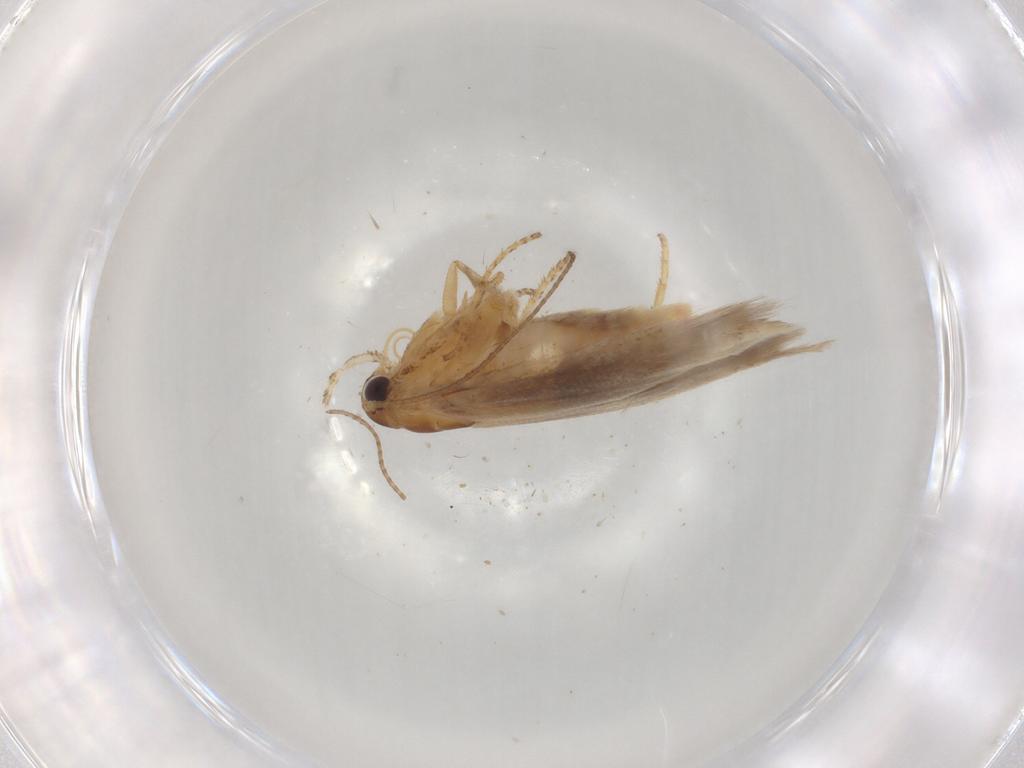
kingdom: Animalia
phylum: Arthropoda
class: Insecta
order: Lepidoptera
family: Gelechiidae
